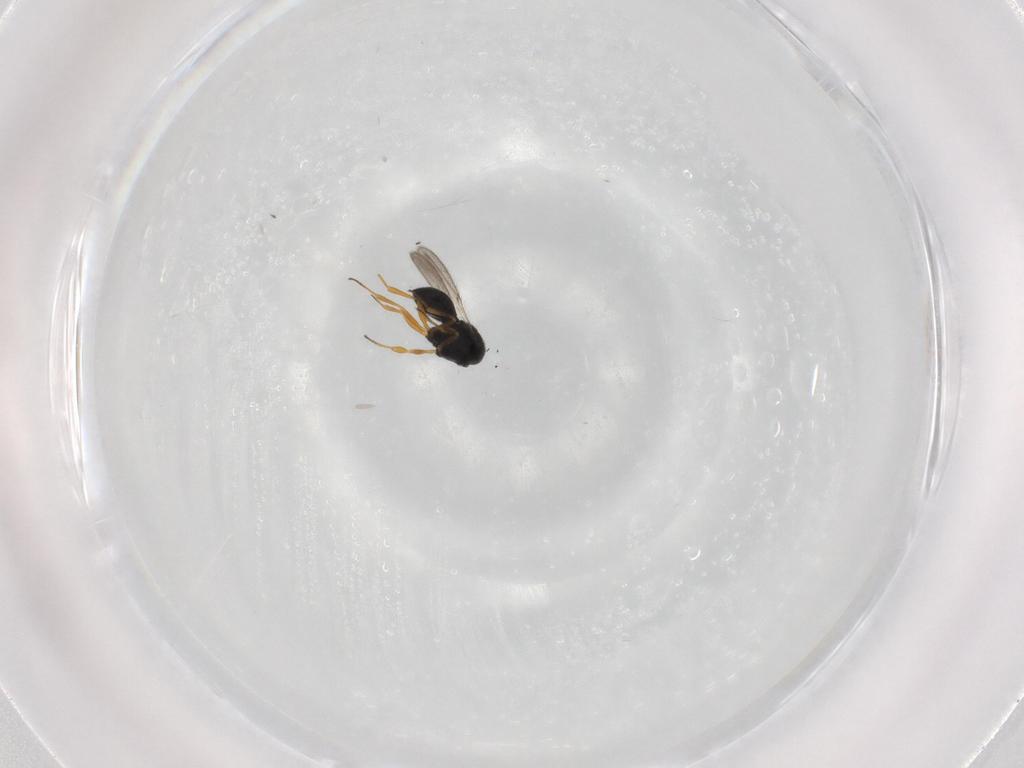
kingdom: Animalia
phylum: Arthropoda
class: Insecta
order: Hymenoptera
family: Scelionidae
